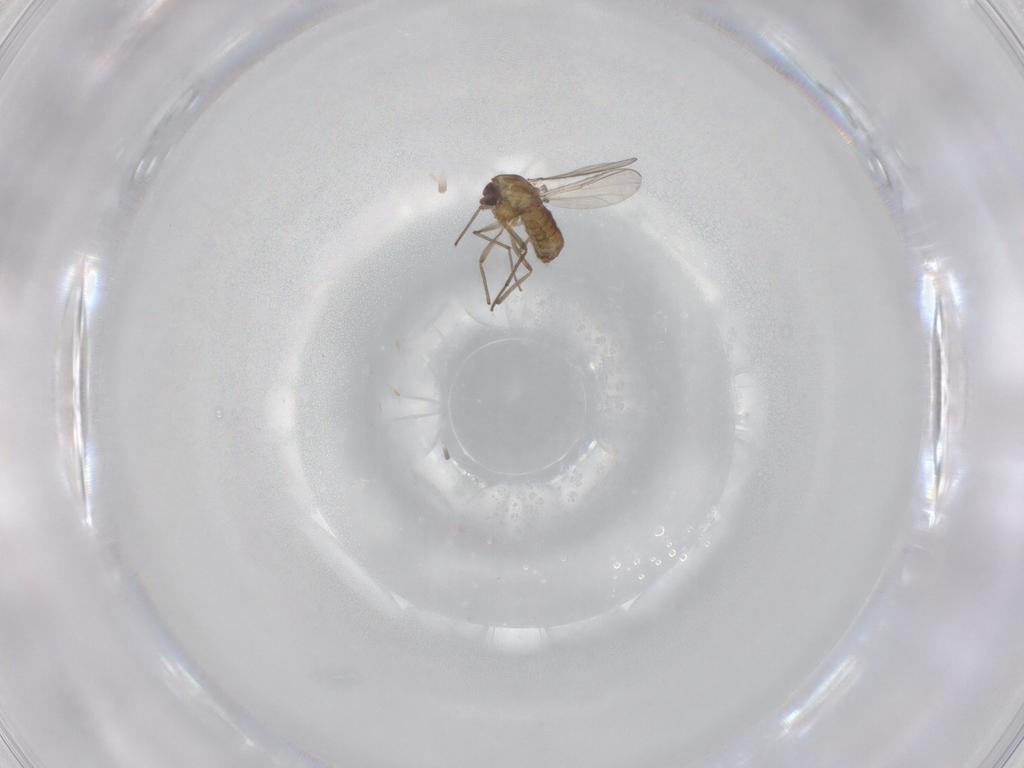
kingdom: Animalia
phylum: Arthropoda
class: Insecta
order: Diptera
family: Chironomidae
